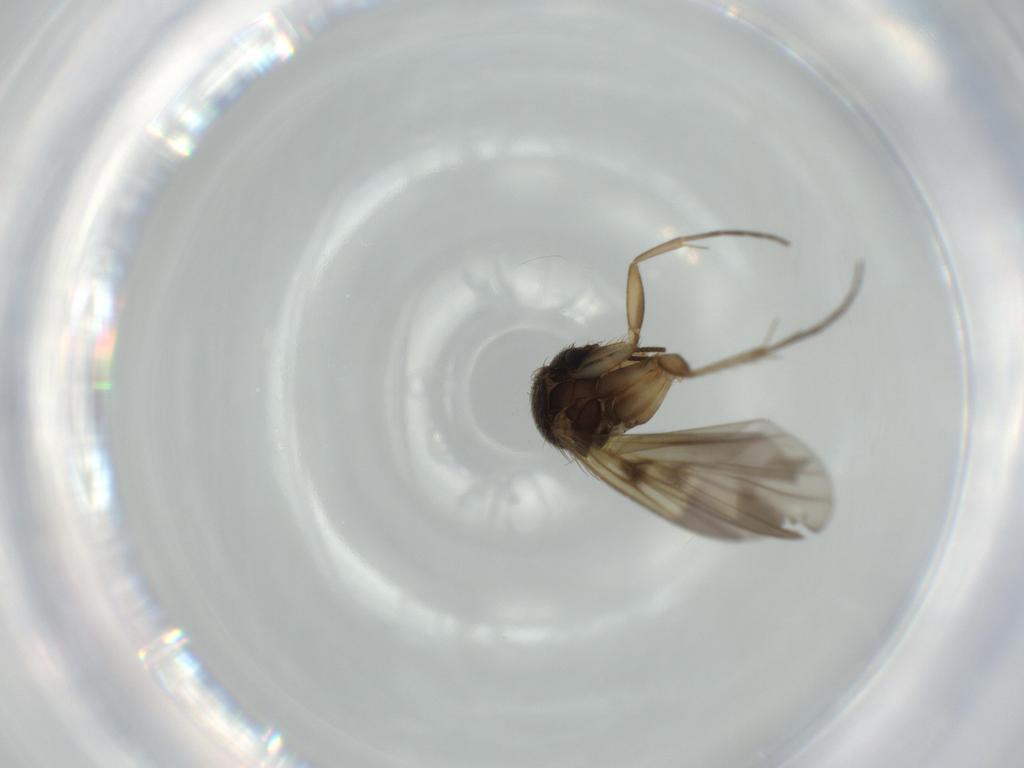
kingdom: Animalia
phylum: Arthropoda
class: Insecta
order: Diptera
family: Mycetophilidae
